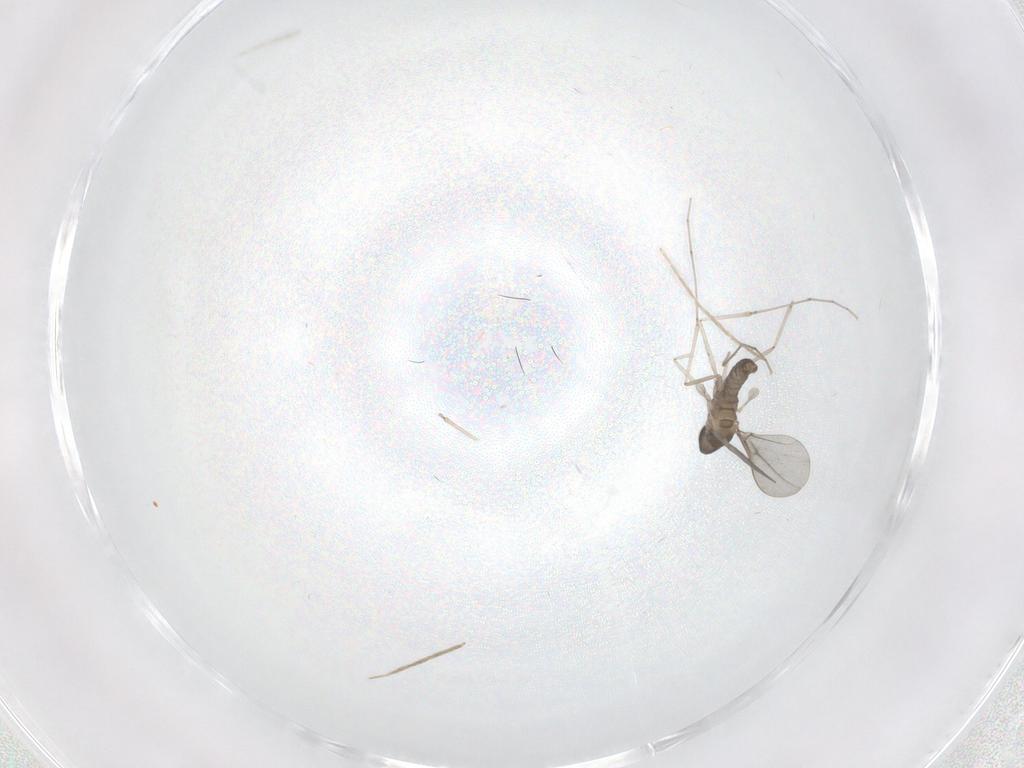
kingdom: Animalia
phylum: Arthropoda
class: Insecta
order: Diptera
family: Cecidomyiidae
